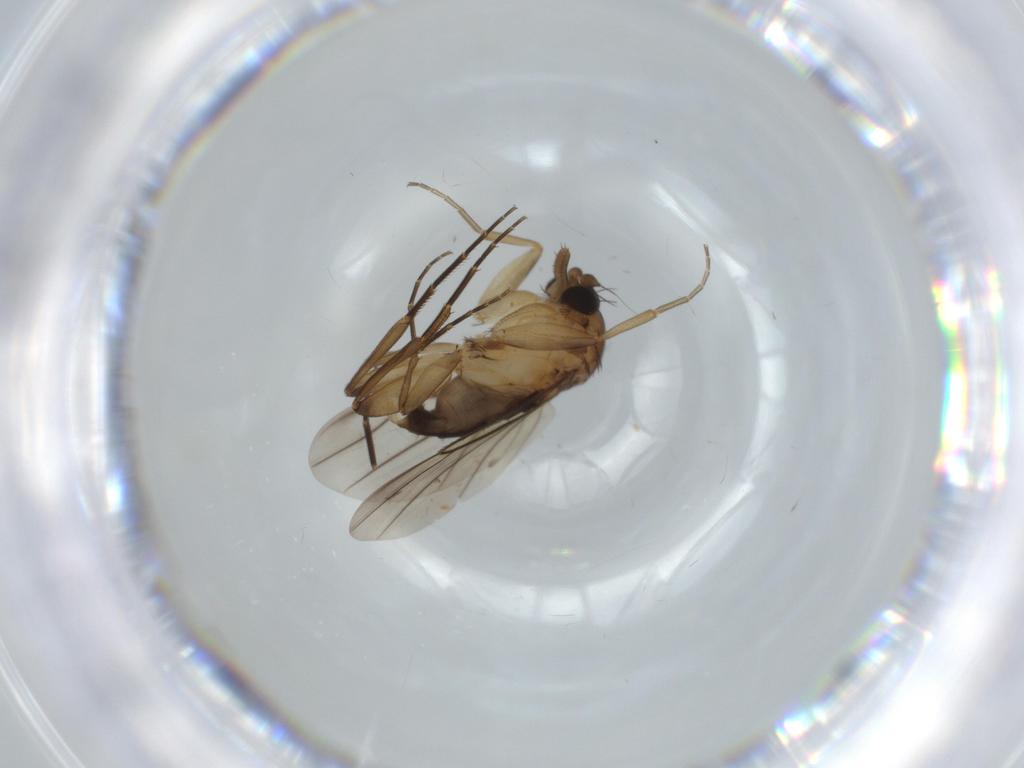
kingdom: Animalia
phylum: Arthropoda
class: Insecta
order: Diptera
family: Phoridae
